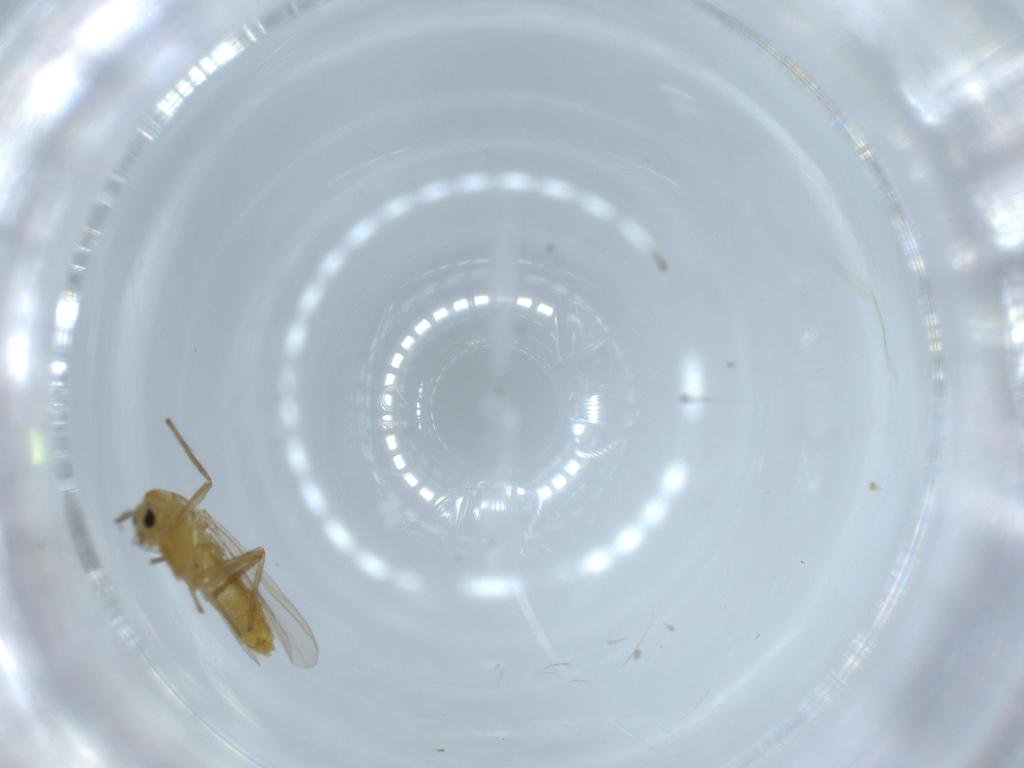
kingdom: Animalia
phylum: Arthropoda
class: Insecta
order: Diptera
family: Chironomidae
